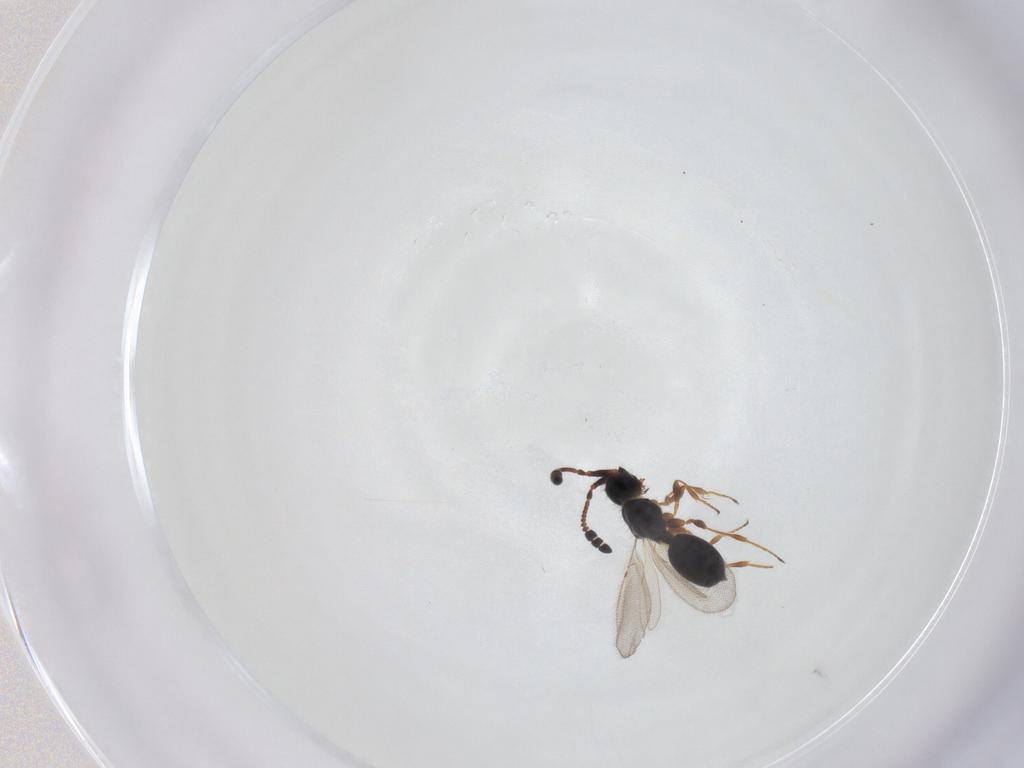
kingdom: Animalia
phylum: Arthropoda
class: Insecta
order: Hymenoptera
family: Diapriidae
